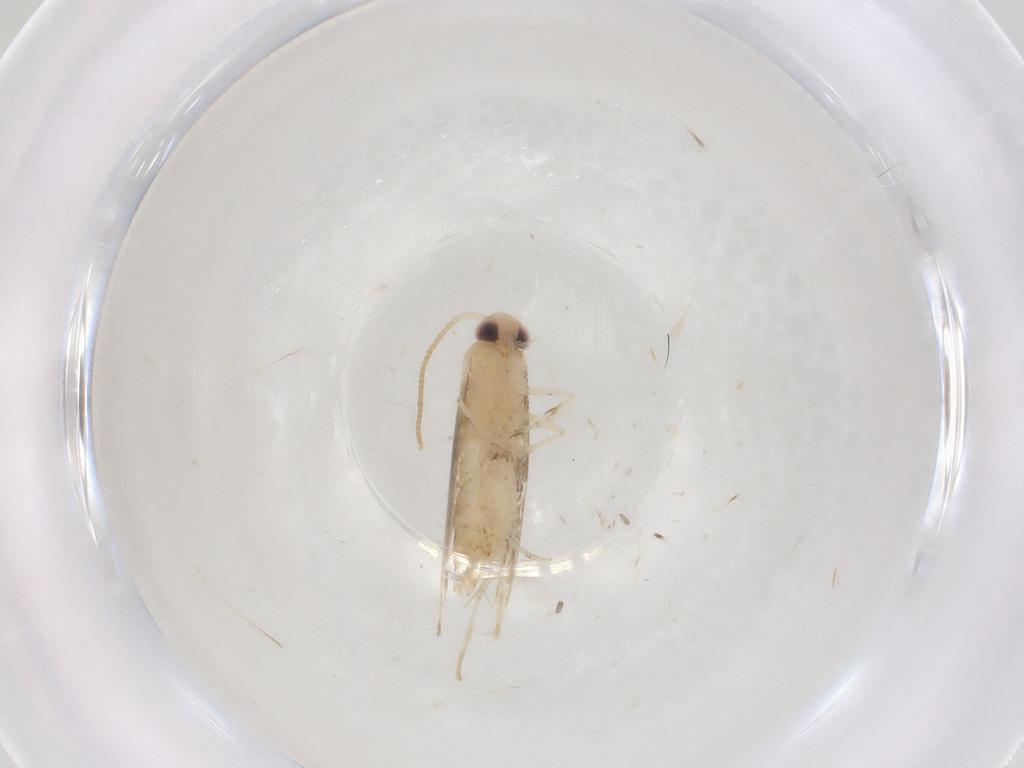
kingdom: Animalia
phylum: Arthropoda
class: Insecta
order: Lepidoptera
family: Gracillariidae
